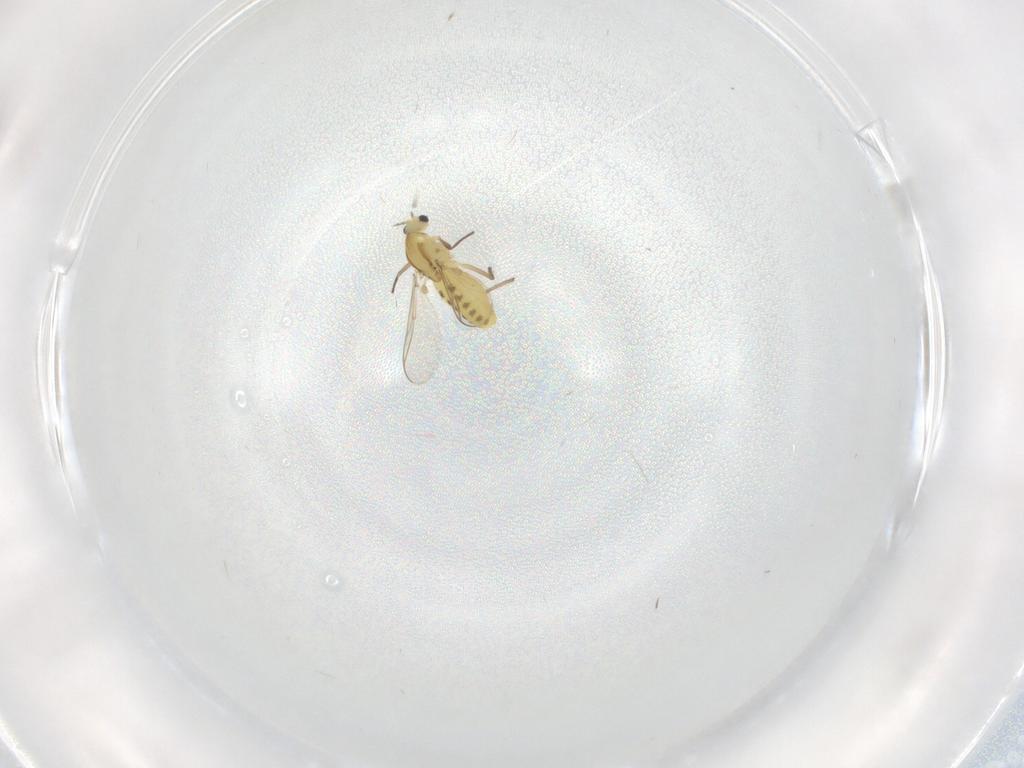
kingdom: Animalia
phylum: Arthropoda
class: Insecta
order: Diptera
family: Chironomidae
